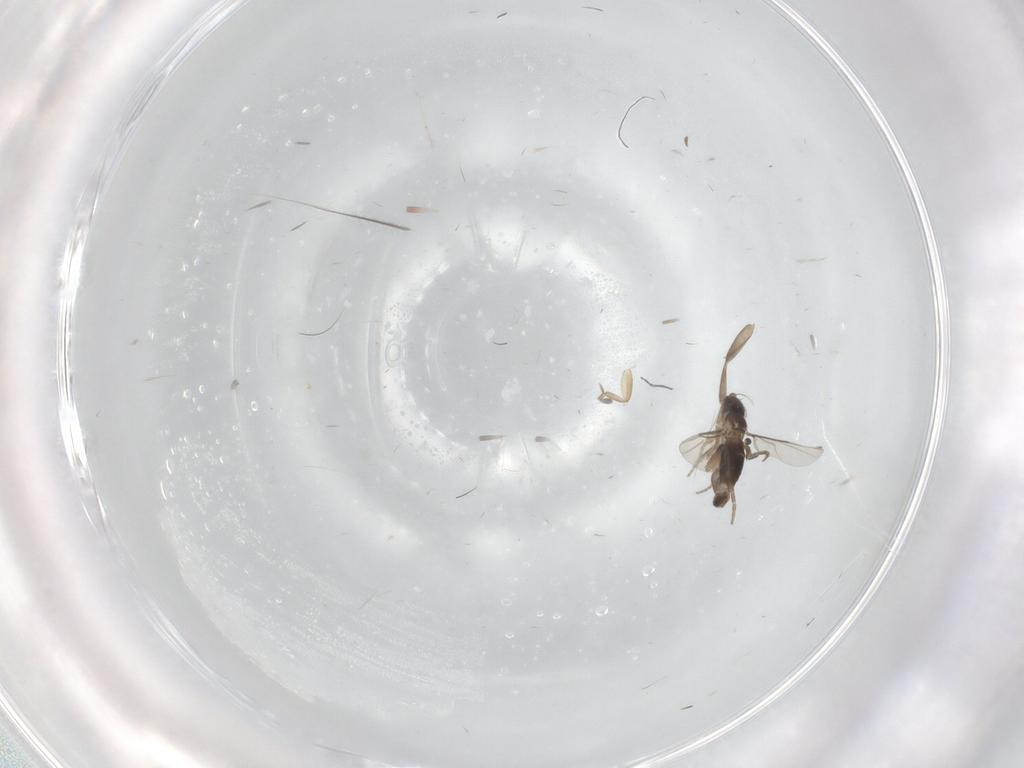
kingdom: Animalia
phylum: Arthropoda
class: Insecta
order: Diptera
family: Phoridae
